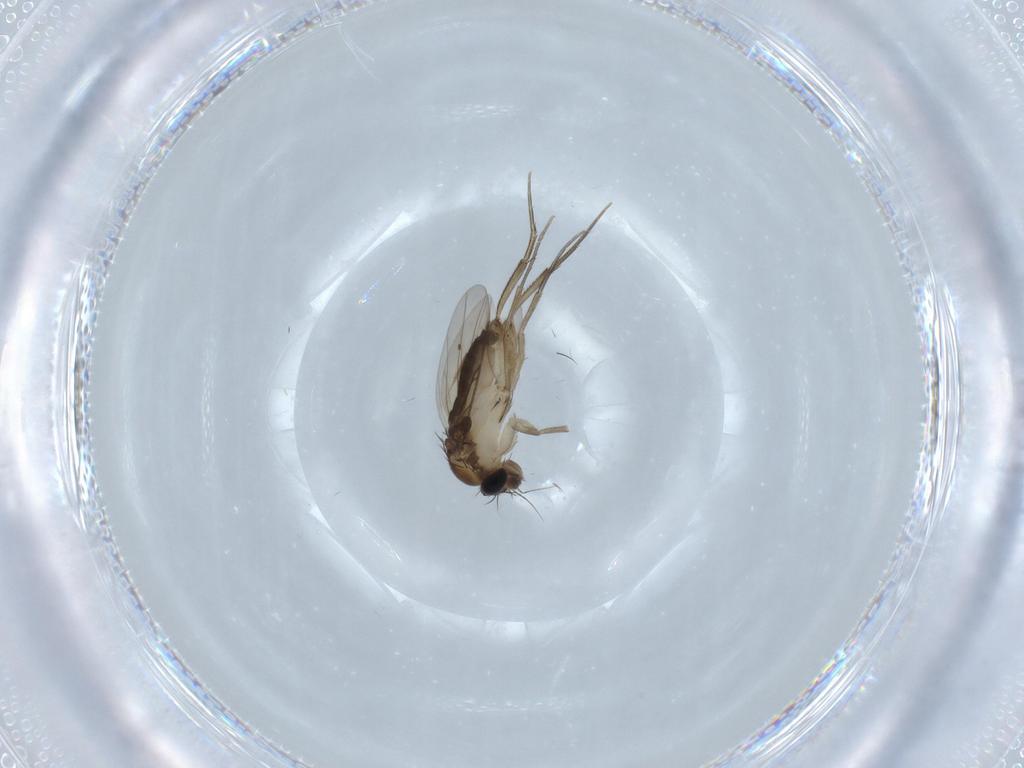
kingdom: Animalia
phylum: Arthropoda
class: Insecta
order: Diptera
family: Phoridae
